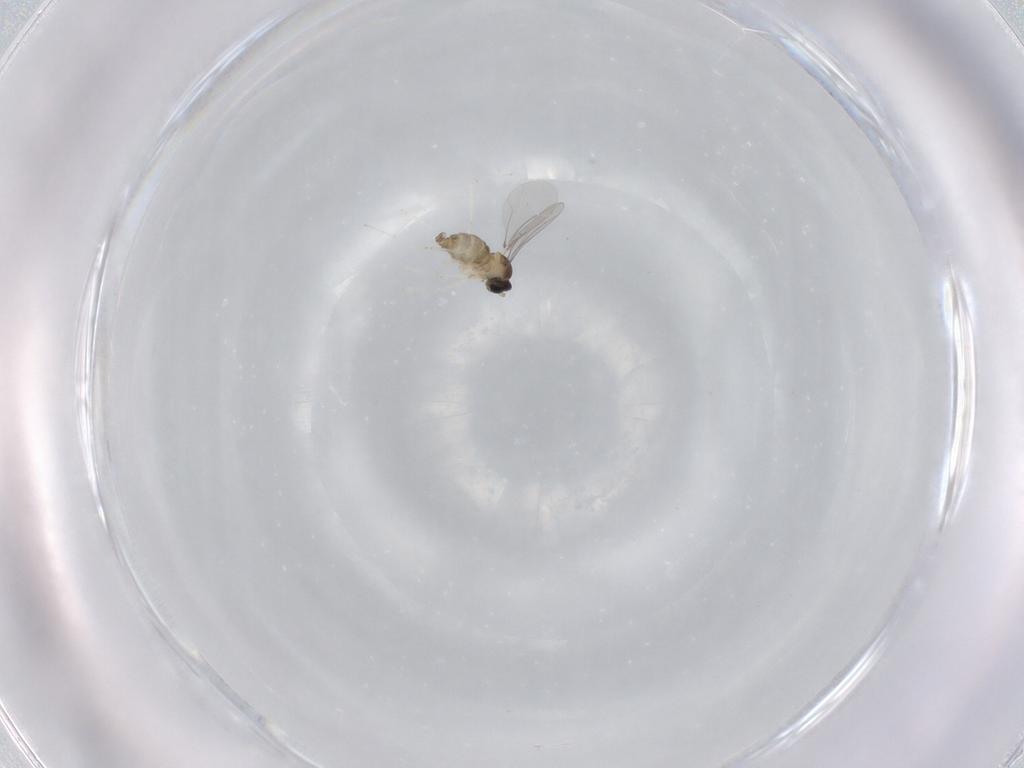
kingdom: Animalia
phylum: Arthropoda
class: Insecta
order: Diptera
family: Cecidomyiidae
